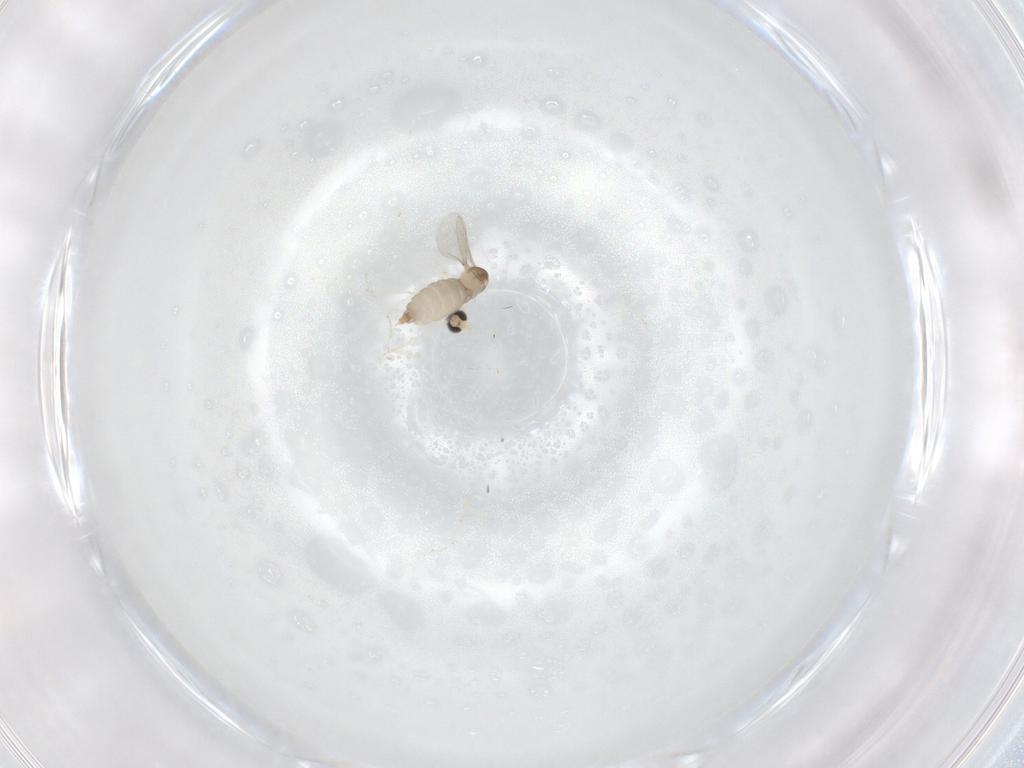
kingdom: Animalia
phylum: Arthropoda
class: Insecta
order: Diptera
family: Cecidomyiidae
